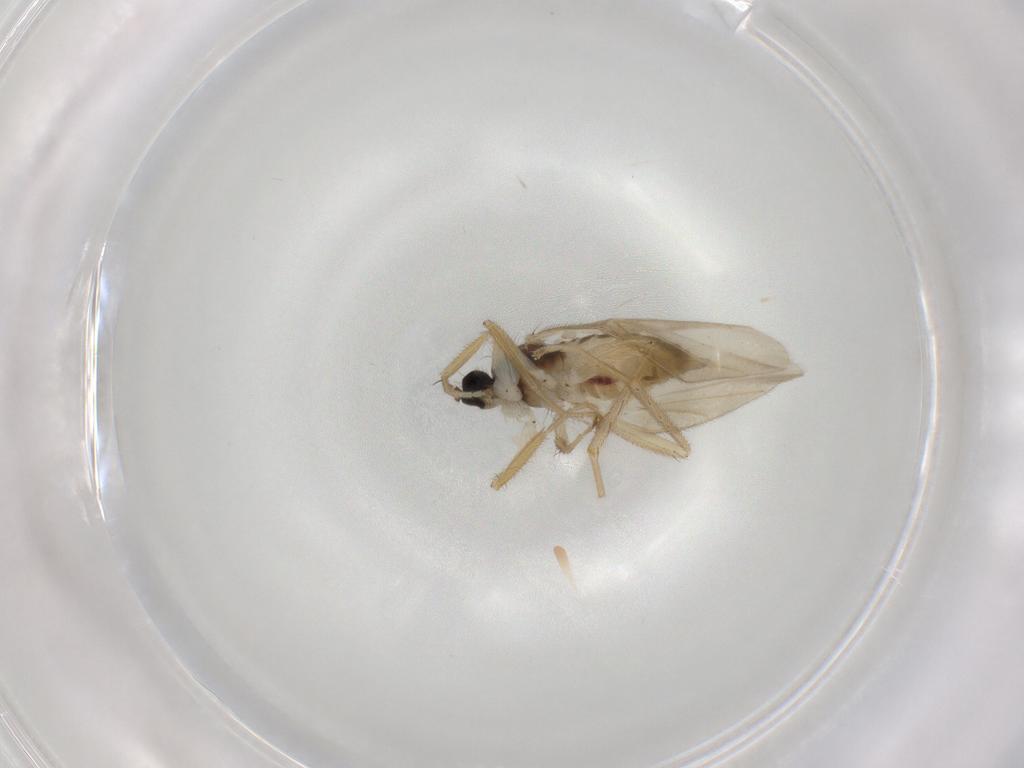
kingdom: Animalia
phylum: Arthropoda
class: Insecta
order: Diptera
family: Hybotidae
